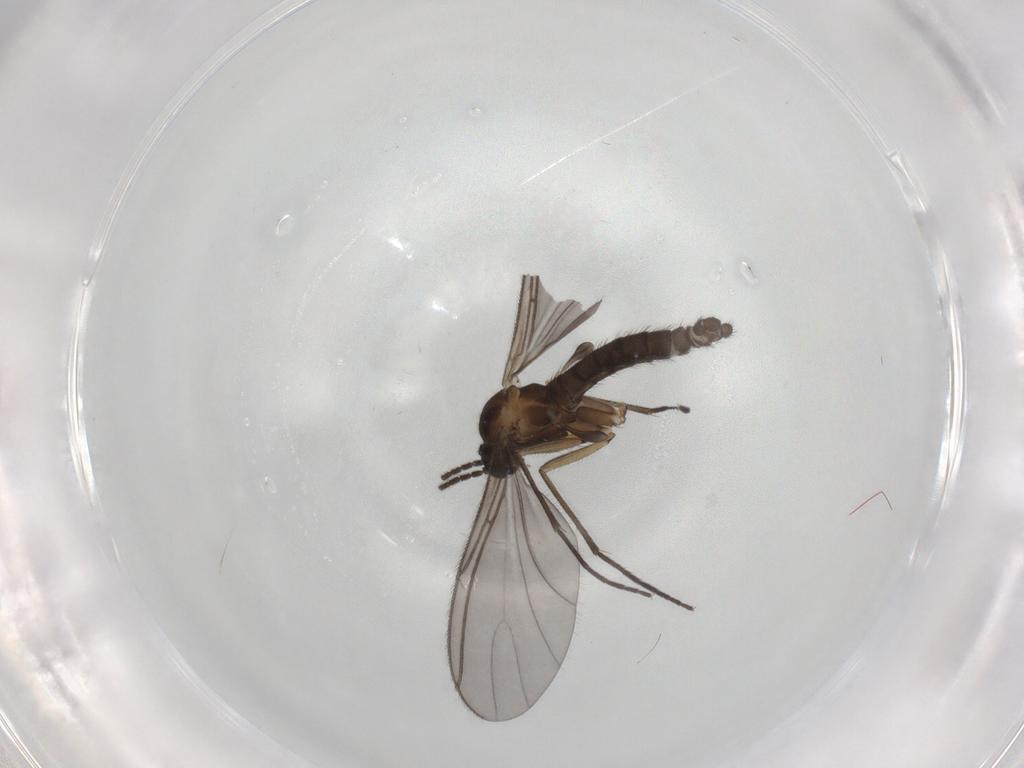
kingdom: Animalia
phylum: Arthropoda
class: Insecta
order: Diptera
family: Sciaridae
